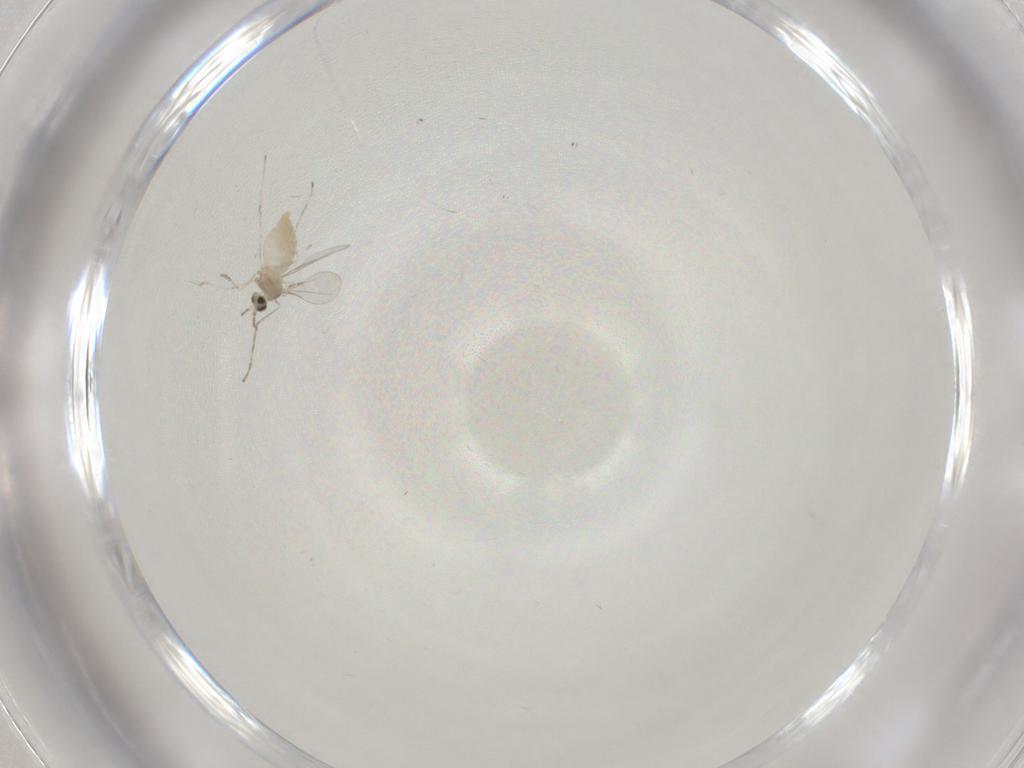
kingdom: Animalia
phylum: Arthropoda
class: Insecta
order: Diptera
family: Cecidomyiidae
